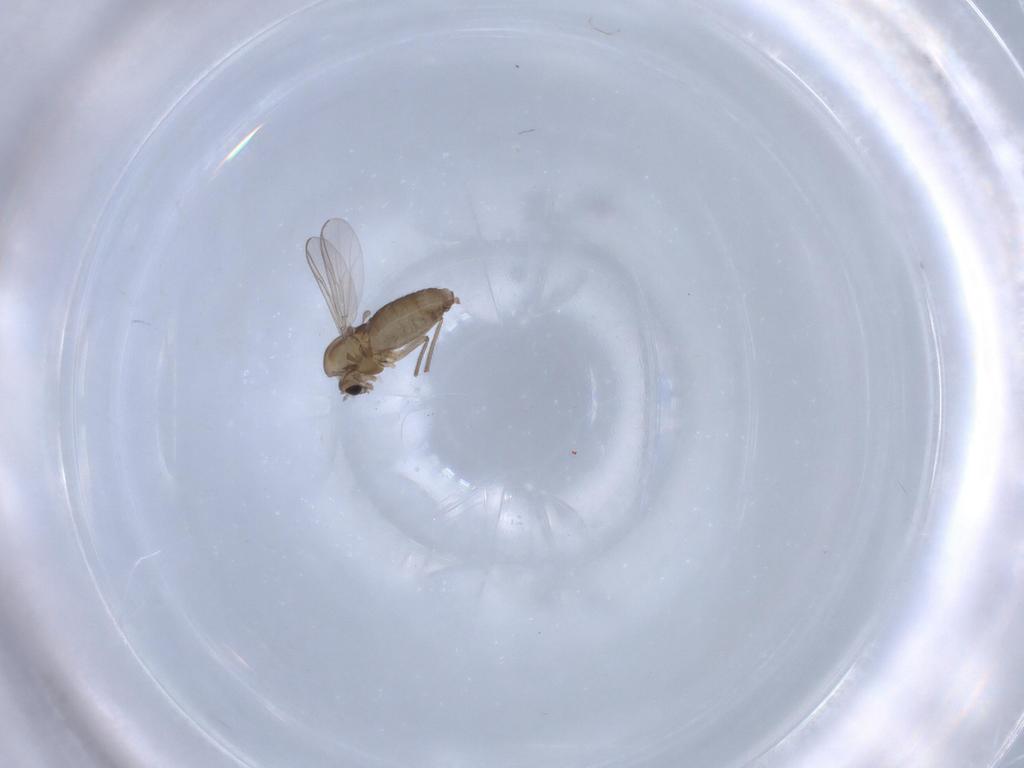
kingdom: Animalia
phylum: Arthropoda
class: Insecta
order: Diptera
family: Chironomidae
